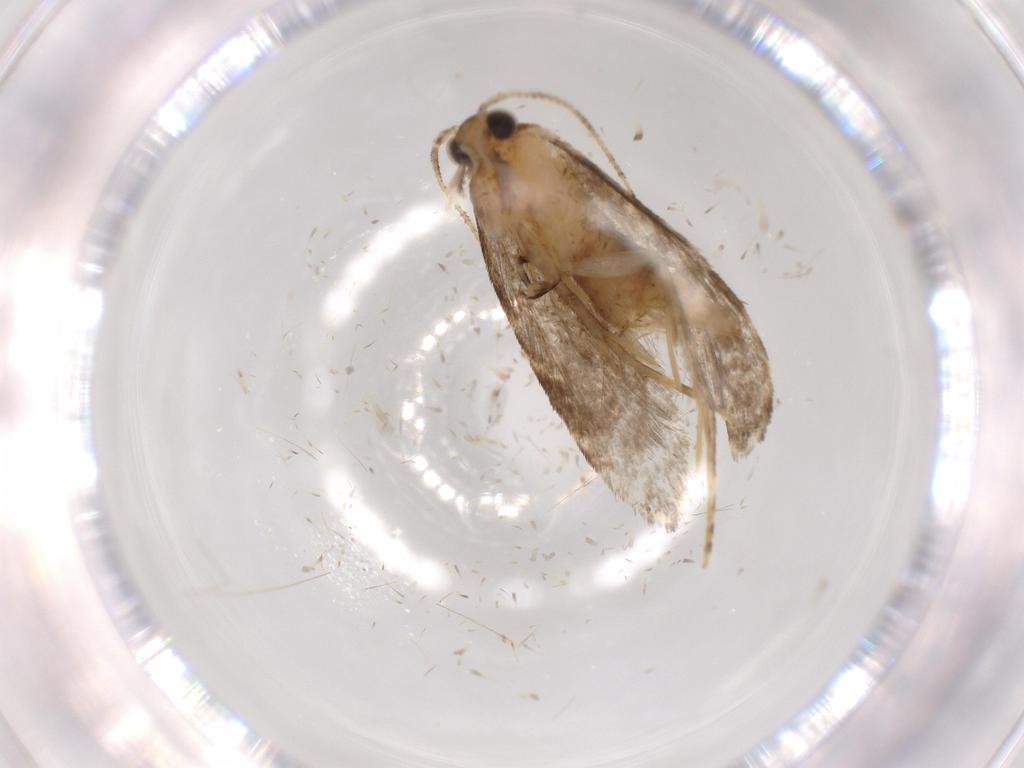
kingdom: Animalia
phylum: Arthropoda
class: Insecta
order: Lepidoptera
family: Tineidae
